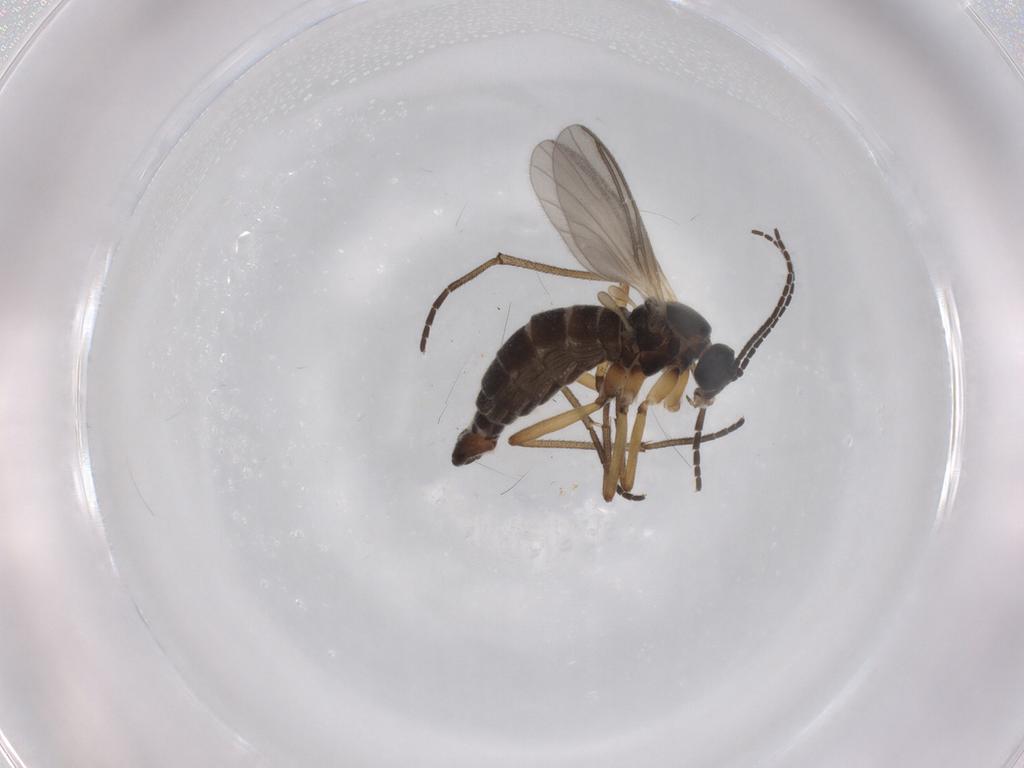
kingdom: Animalia
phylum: Arthropoda
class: Insecta
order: Diptera
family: Sciaridae
